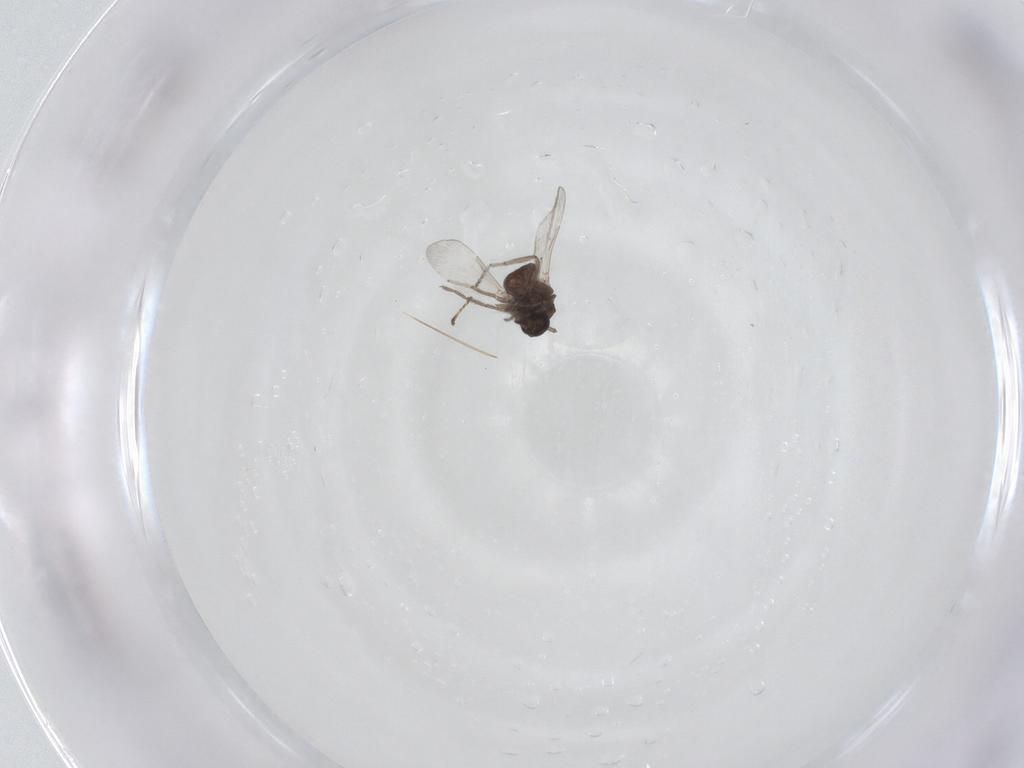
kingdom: Animalia
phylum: Arthropoda
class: Insecta
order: Diptera
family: Ceratopogonidae
